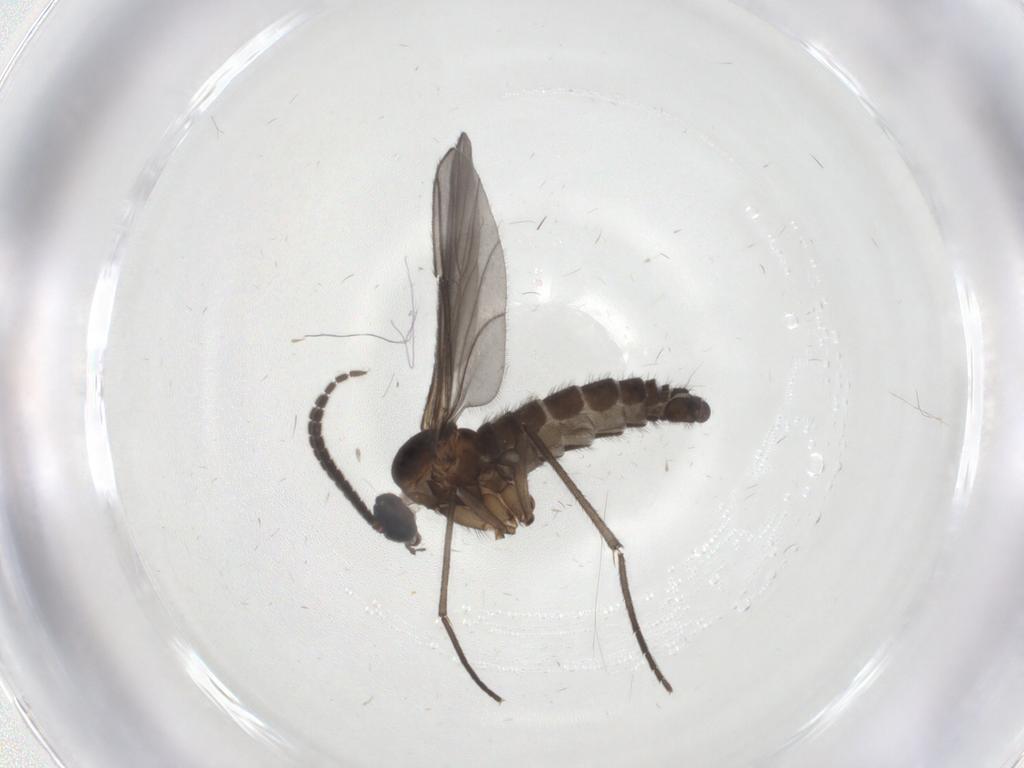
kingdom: Animalia
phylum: Arthropoda
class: Insecta
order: Diptera
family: Sciaridae
